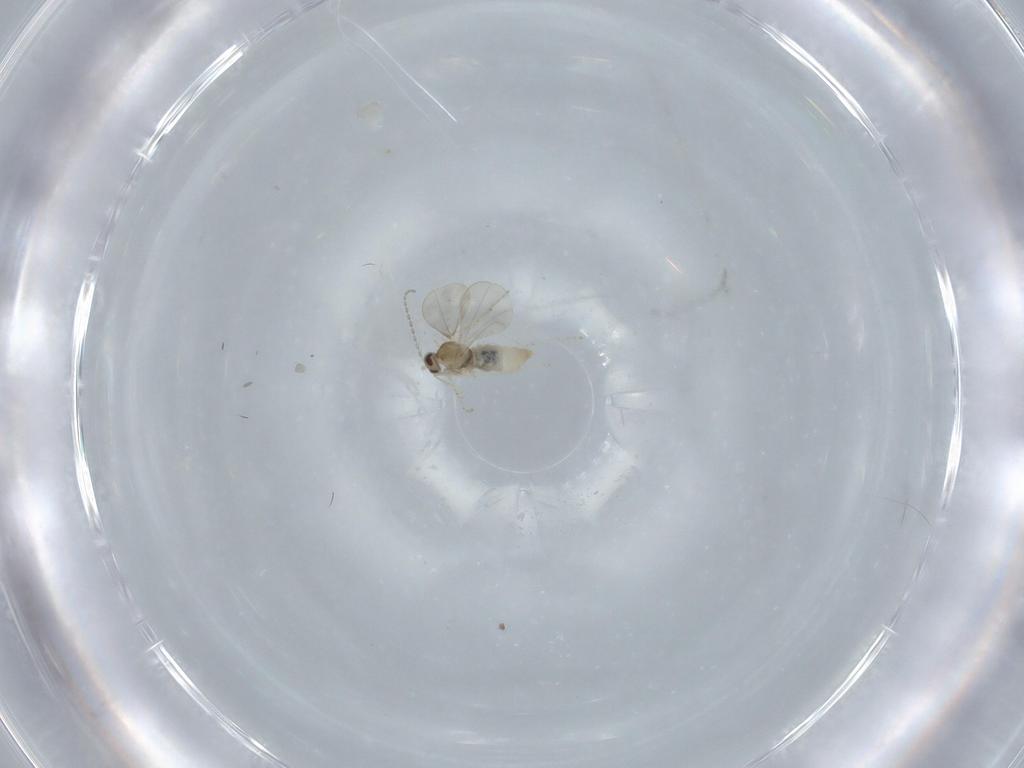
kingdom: Animalia
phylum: Arthropoda
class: Insecta
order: Diptera
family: Cecidomyiidae
